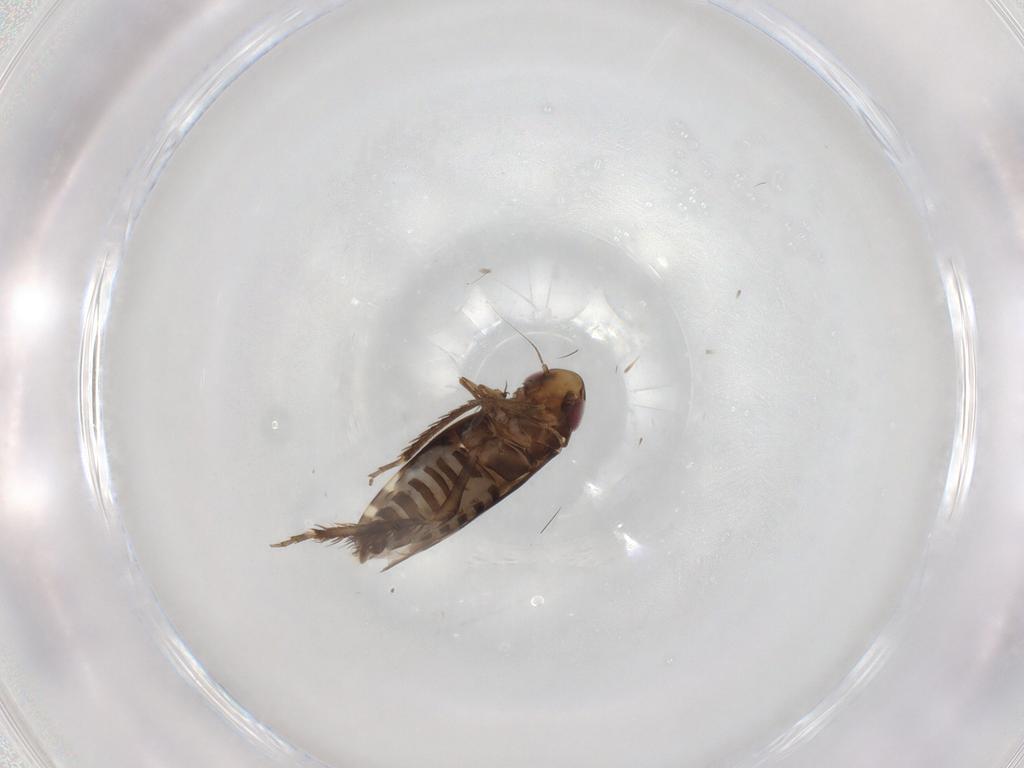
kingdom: Animalia
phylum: Arthropoda
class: Insecta
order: Hemiptera
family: Cicadellidae
